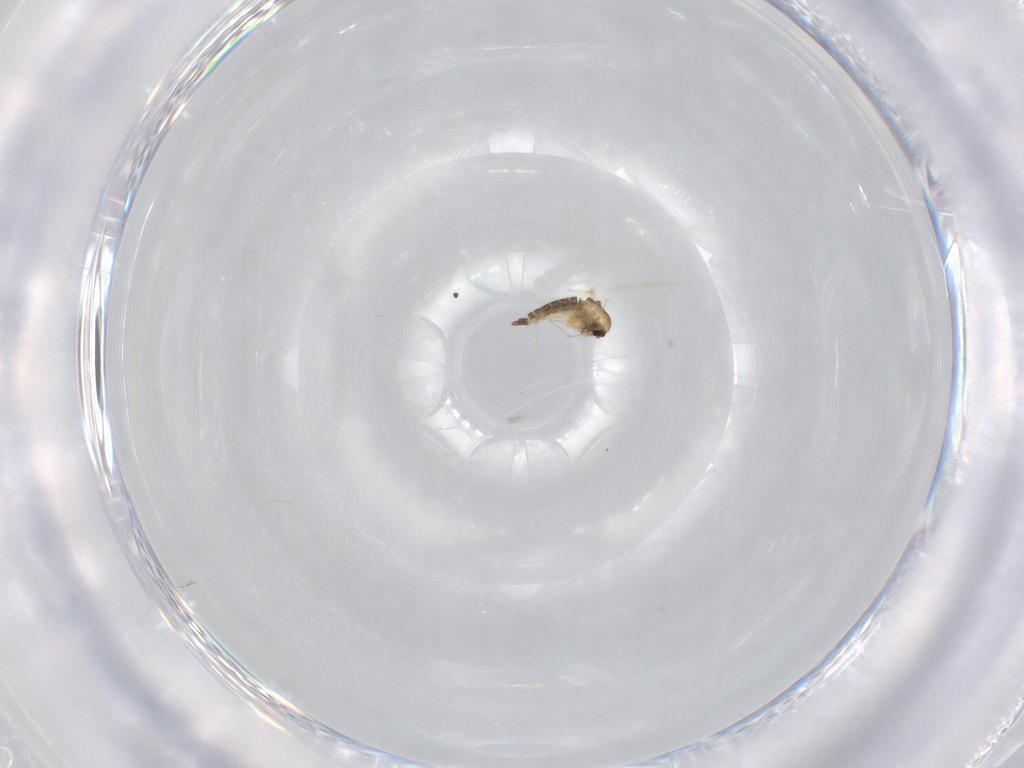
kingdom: Animalia
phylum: Arthropoda
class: Insecta
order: Diptera
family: Chironomidae
